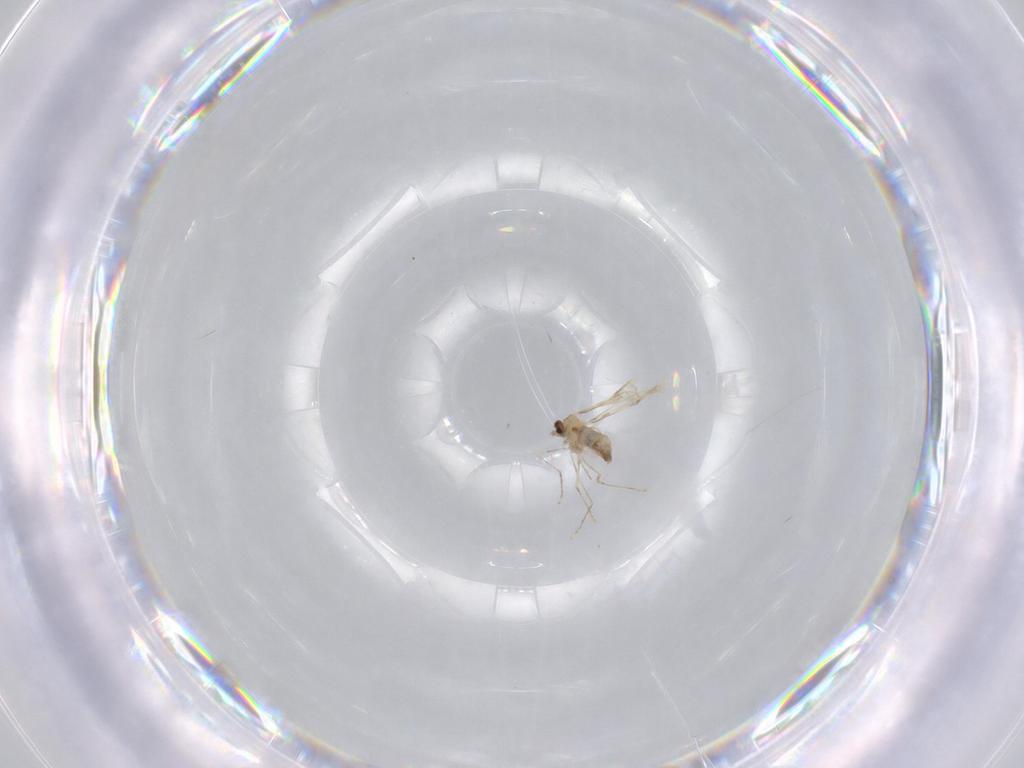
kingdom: Animalia
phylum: Arthropoda
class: Insecta
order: Diptera
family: Cecidomyiidae
